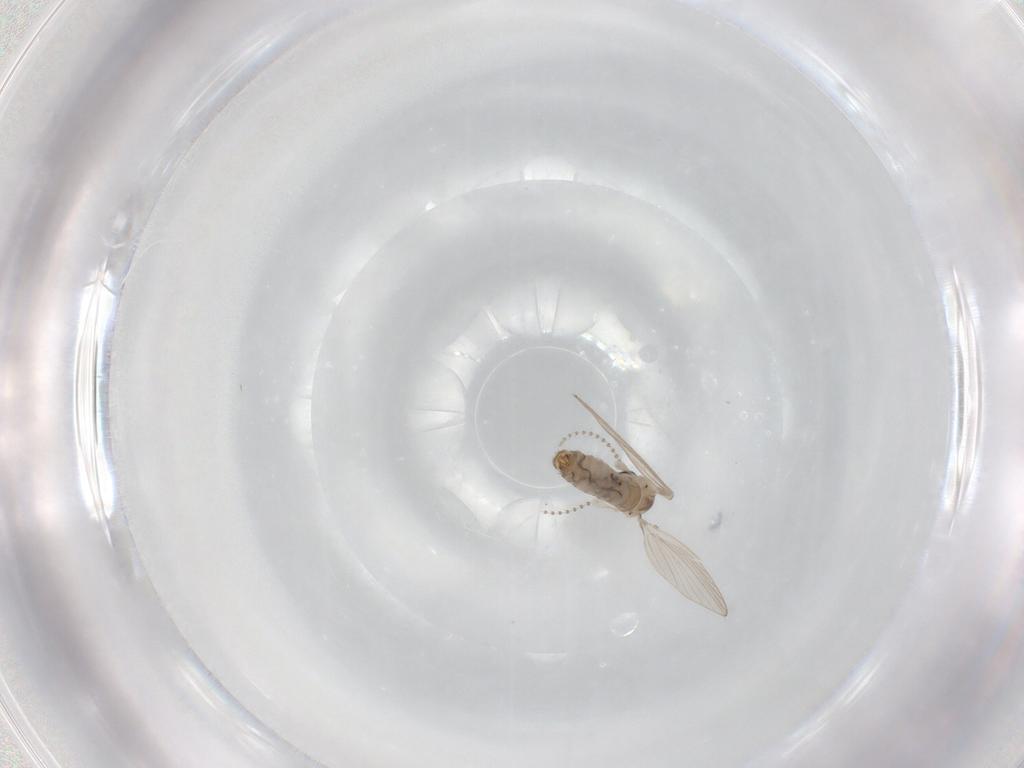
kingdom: Animalia
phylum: Arthropoda
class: Insecta
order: Diptera
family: Psychodidae
